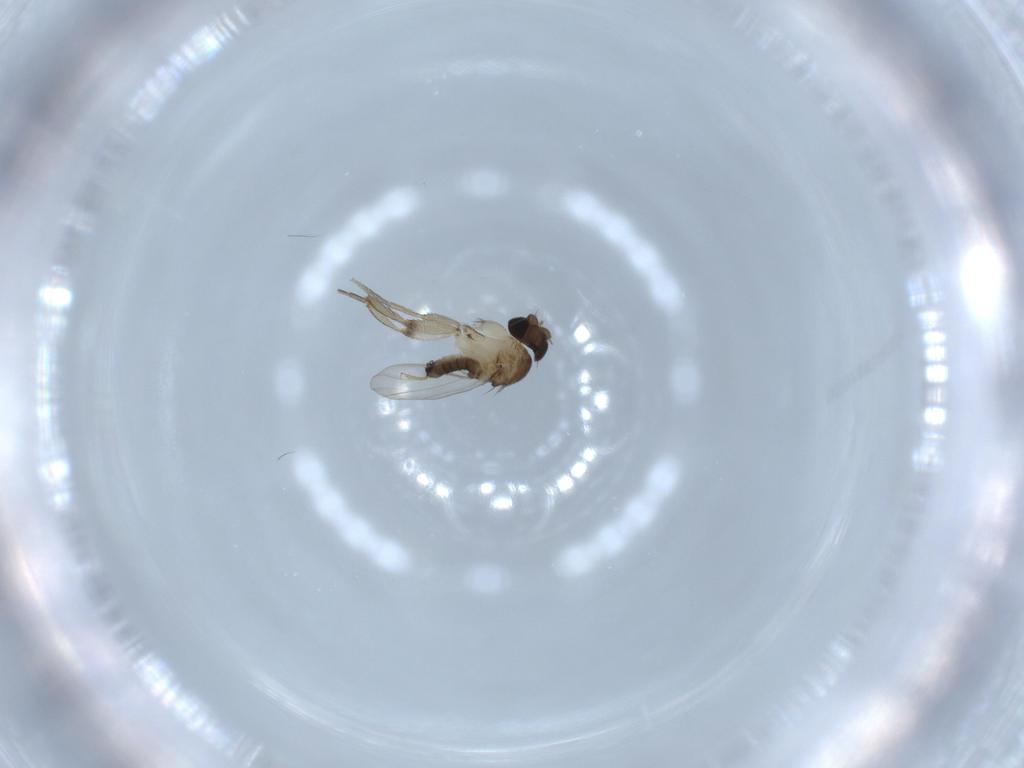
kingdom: Animalia
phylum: Arthropoda
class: Insecta
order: Diptera
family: Phoridae
